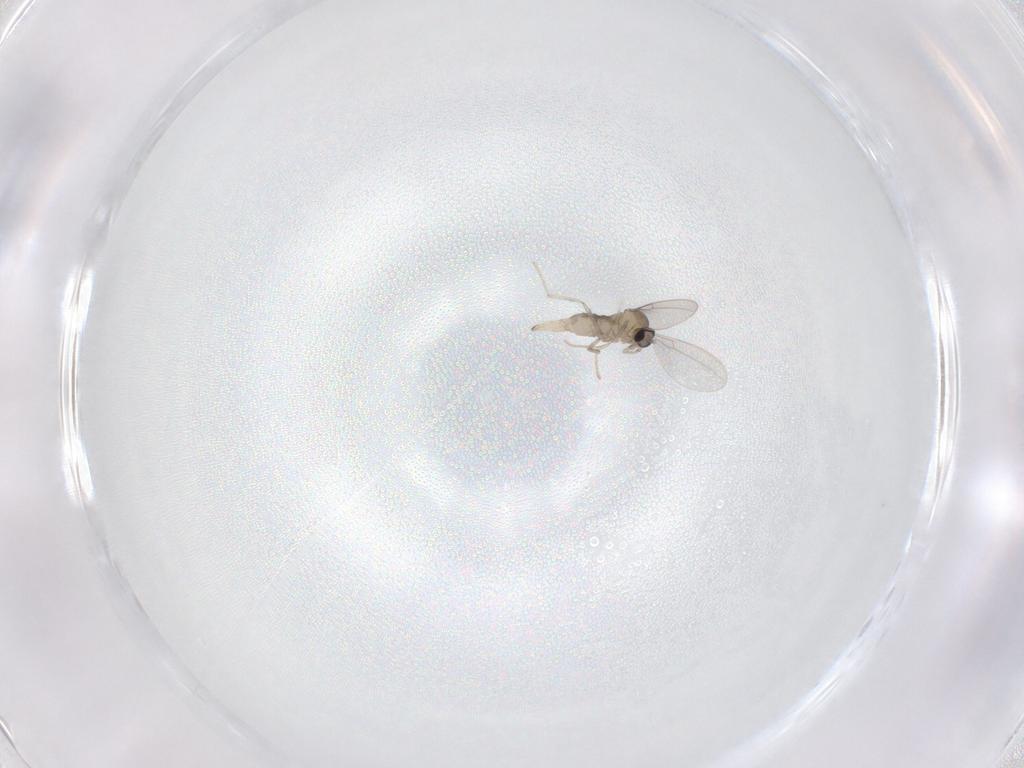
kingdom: Animalia
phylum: Arthropoda
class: Insecta
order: Diptera
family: Cecidomyiidae
